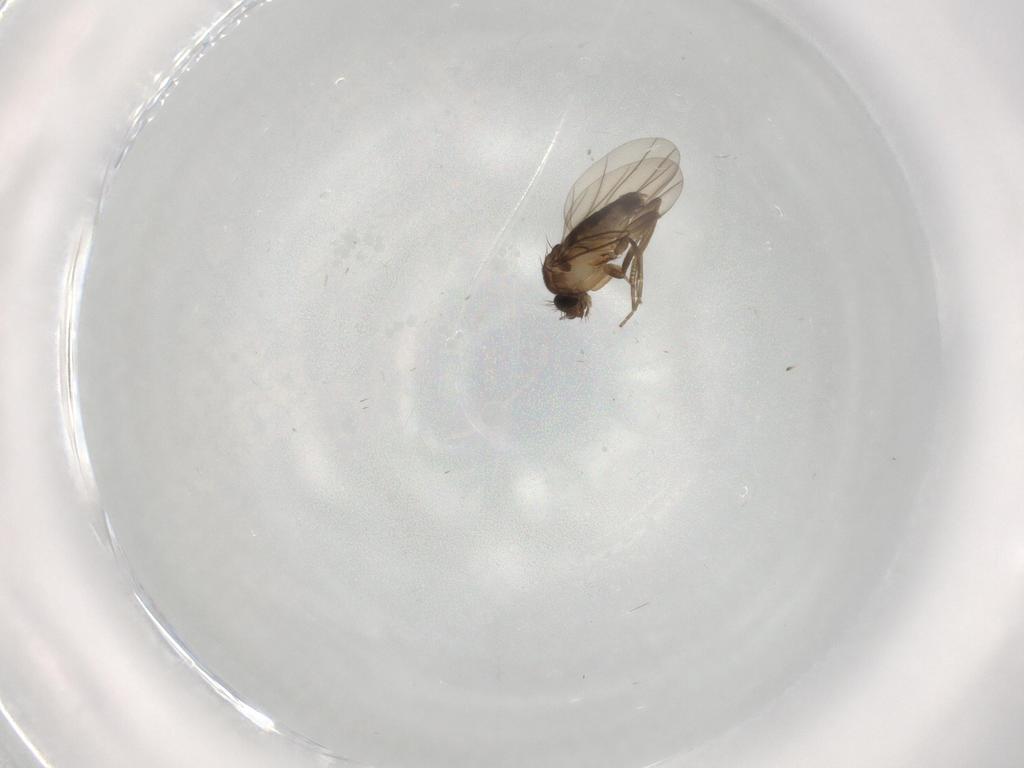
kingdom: Animalia
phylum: Arthropoda
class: Insecta
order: Diptera
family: Phoridae
